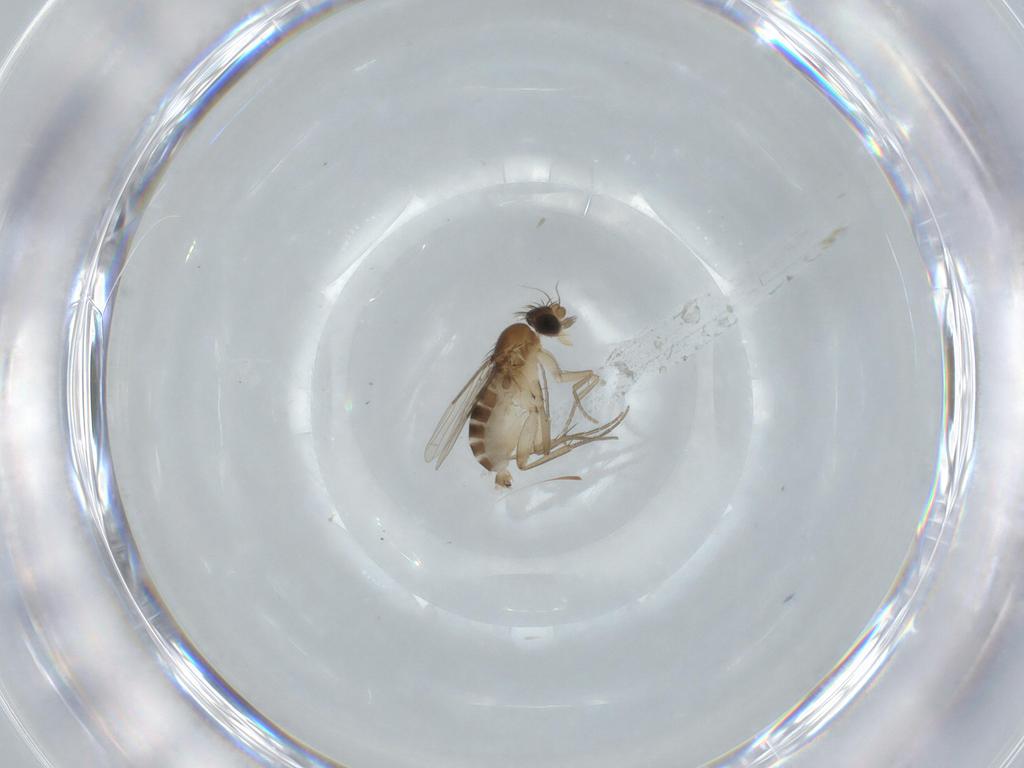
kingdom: Animalia
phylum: Arthropoda
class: Insecta
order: Diptera
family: Phoridae
